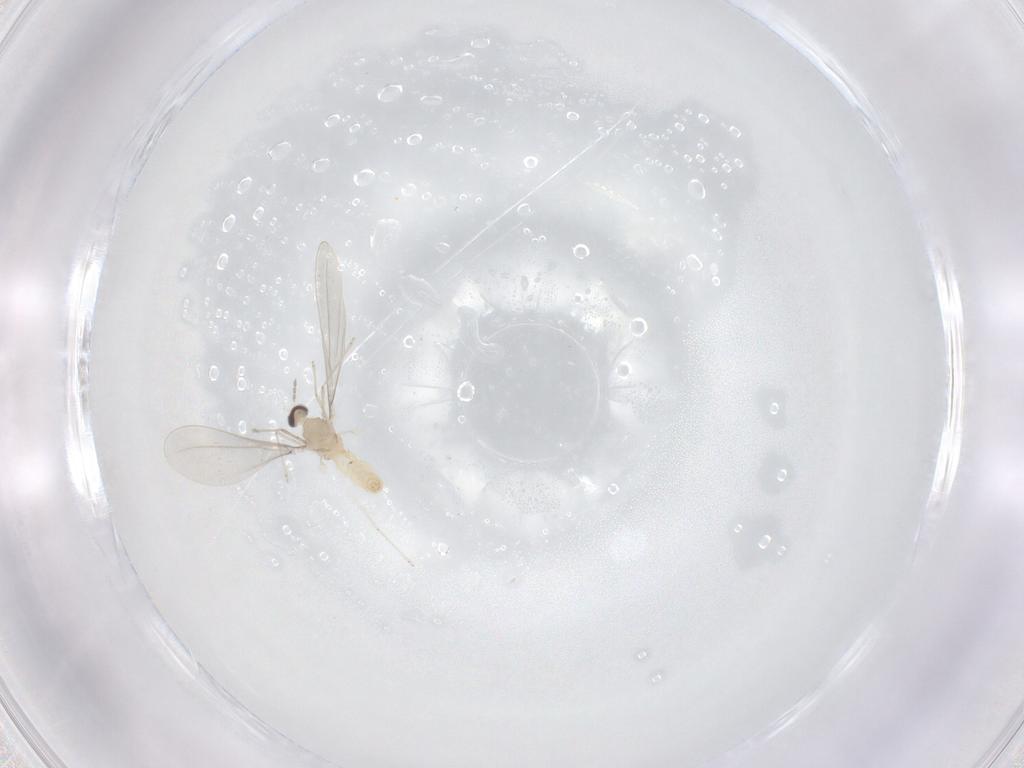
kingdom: Animalia
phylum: Arthropoda
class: Insecta
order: Diptera
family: Cecidomyiidae
